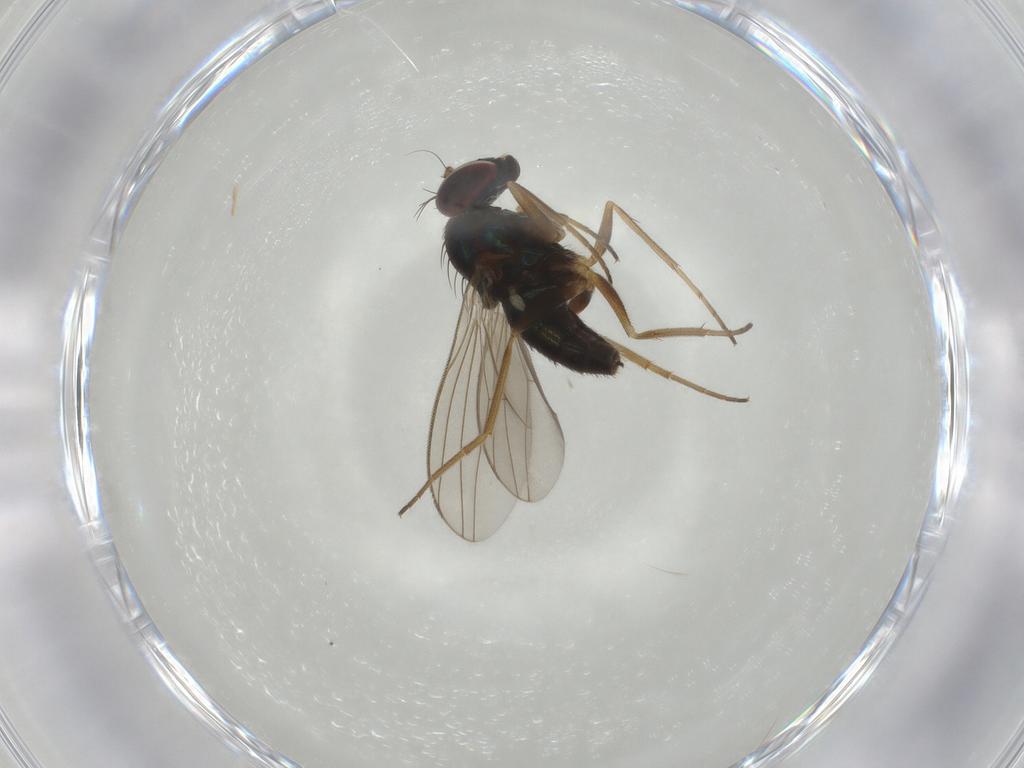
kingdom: Animalia
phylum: Arthropoda
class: Insecta
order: Diptera
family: Dolichopodidae
